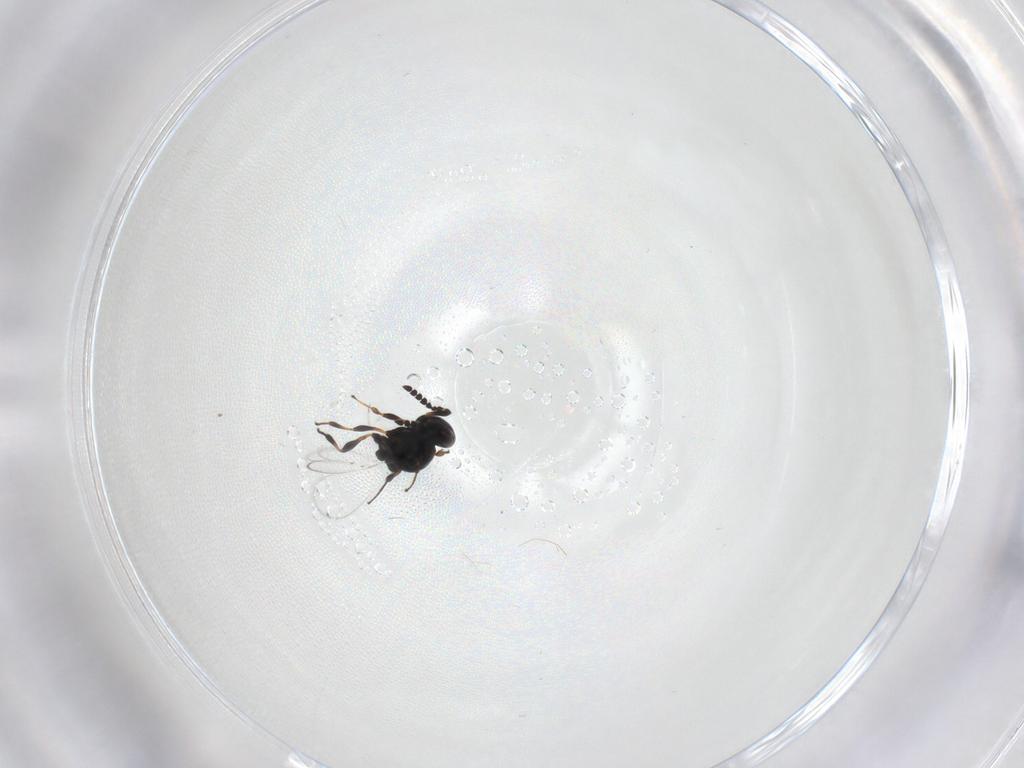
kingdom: Animalia
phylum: Arthropoda
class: Insecta
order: Hymenoptera
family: Platygastridae
